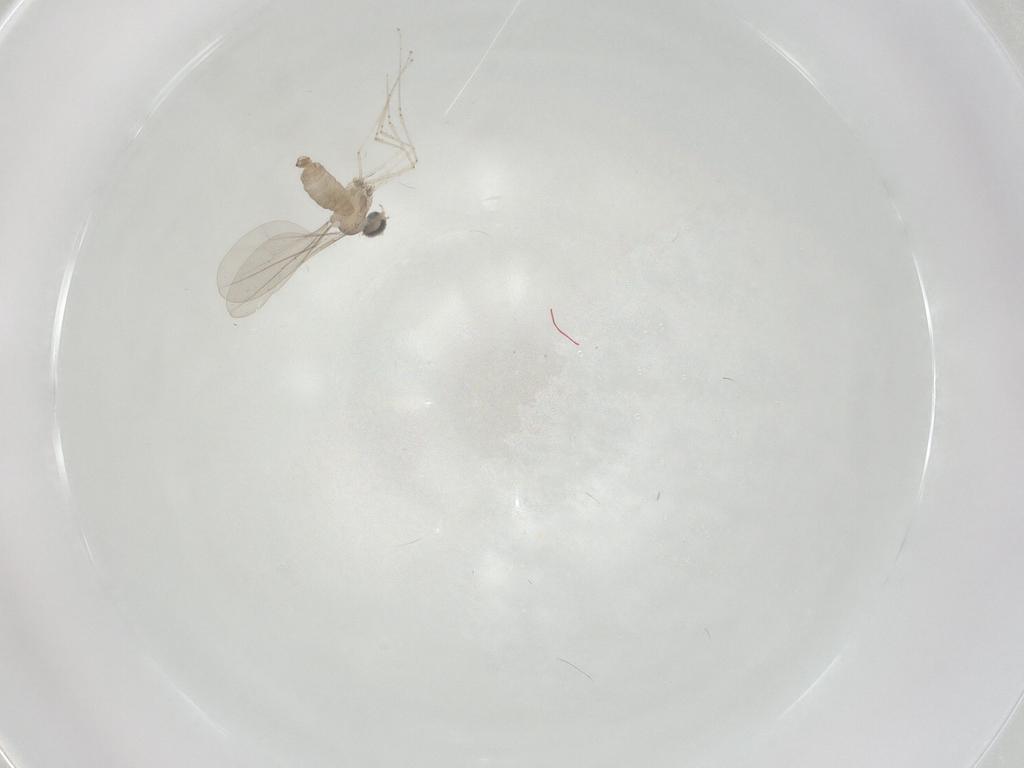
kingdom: Animalia
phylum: Arthropoda
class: Insecta
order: Diptera
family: Cecidomyiidae
